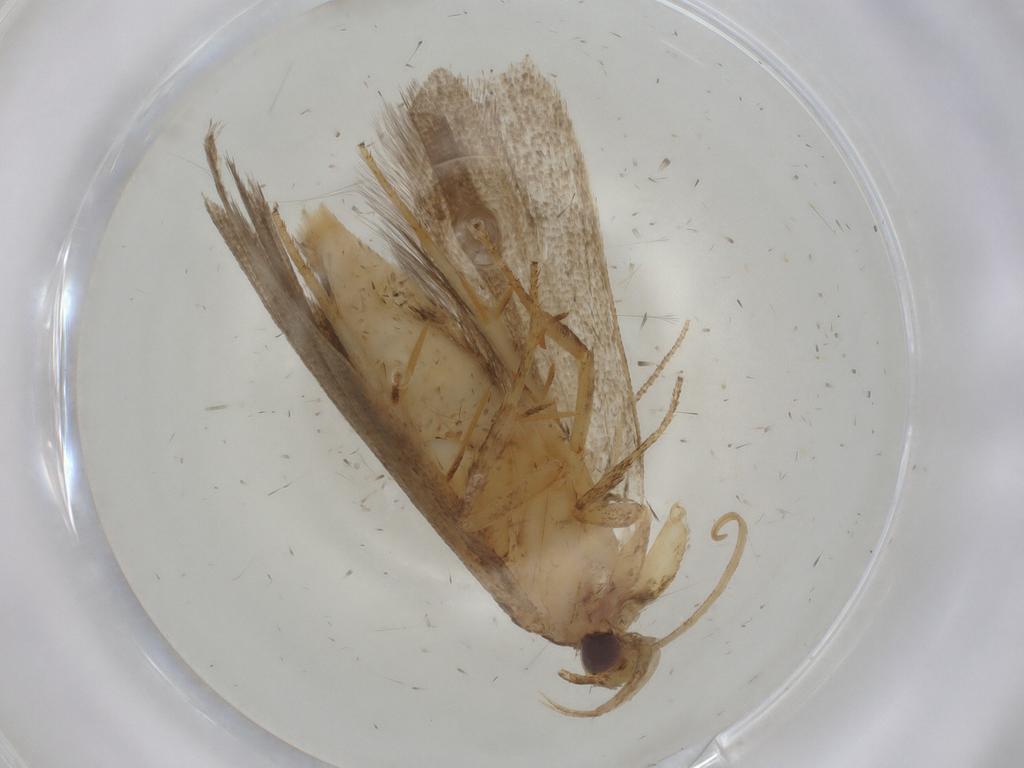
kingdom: Animalia
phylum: Arthropoda
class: Insecta
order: Lepidoptera
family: Gelechiidae
